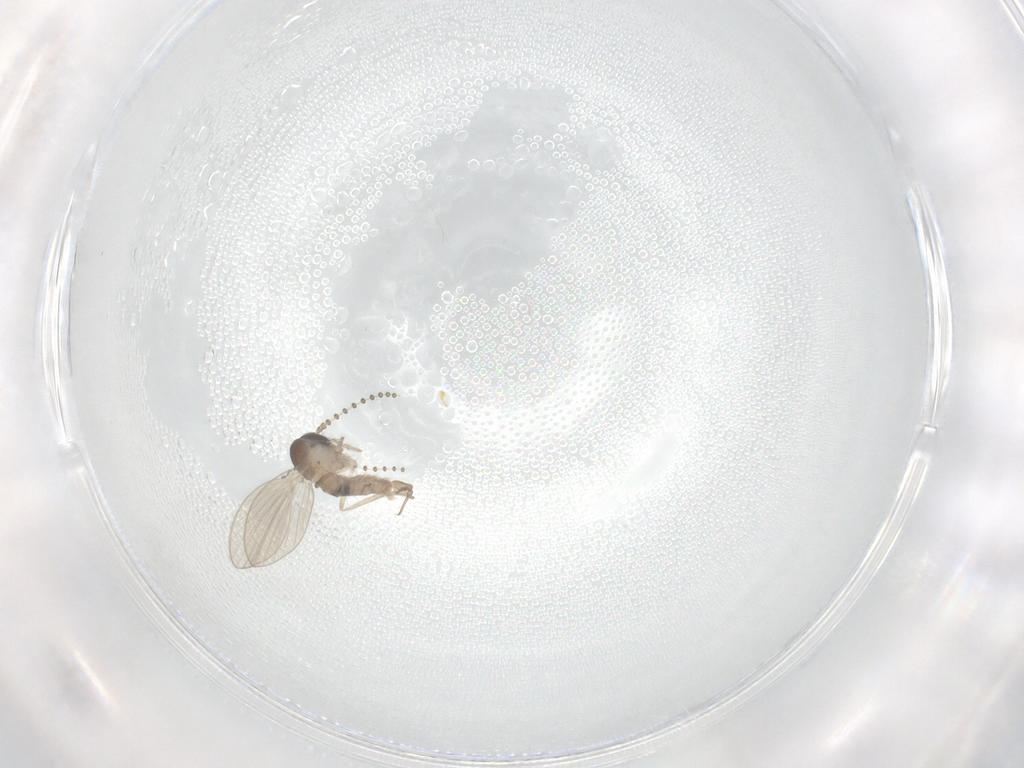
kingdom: Animalia
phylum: Arthropoda
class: Insecta
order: Diptera
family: Psychodidae
